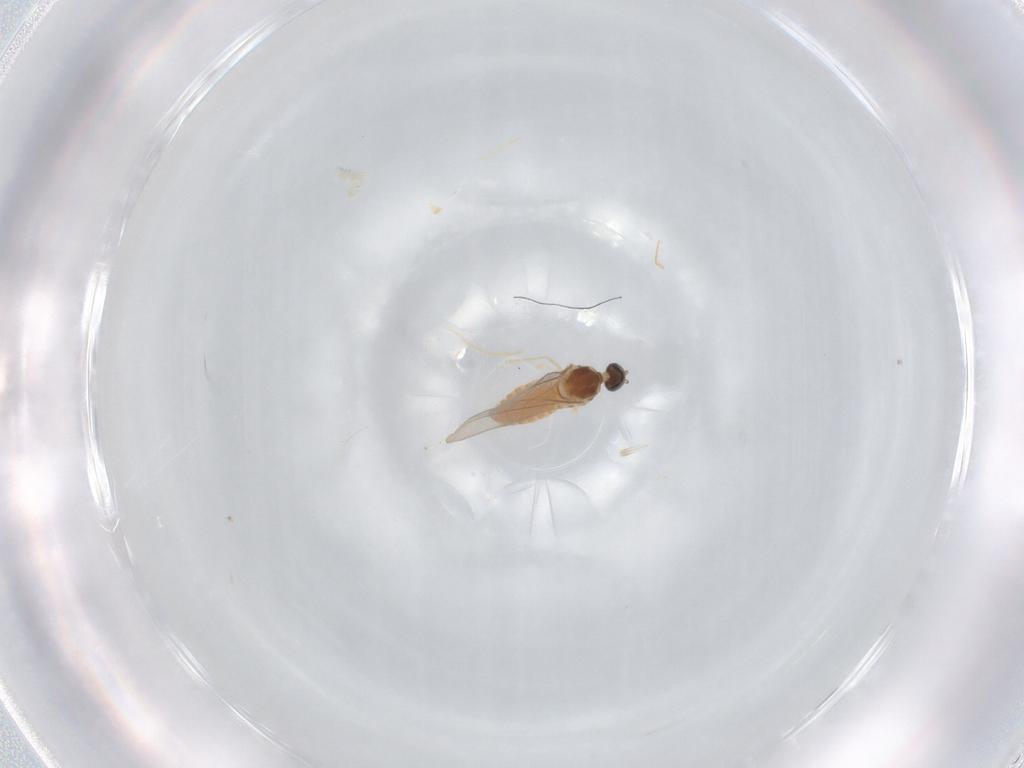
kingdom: Animalia
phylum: Arthropoda
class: Insecta
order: Diptera
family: Cecidomyiidae
